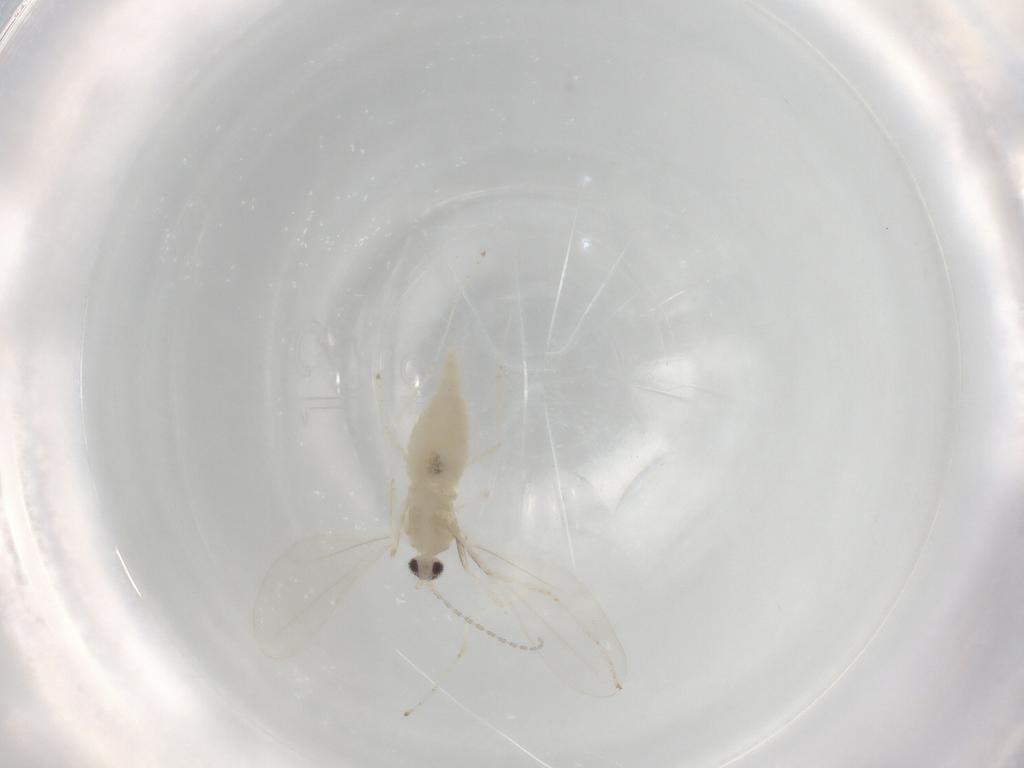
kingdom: Animalia
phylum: Arthropoda
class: Insecta
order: Diptera
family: Cecidomyiidae
